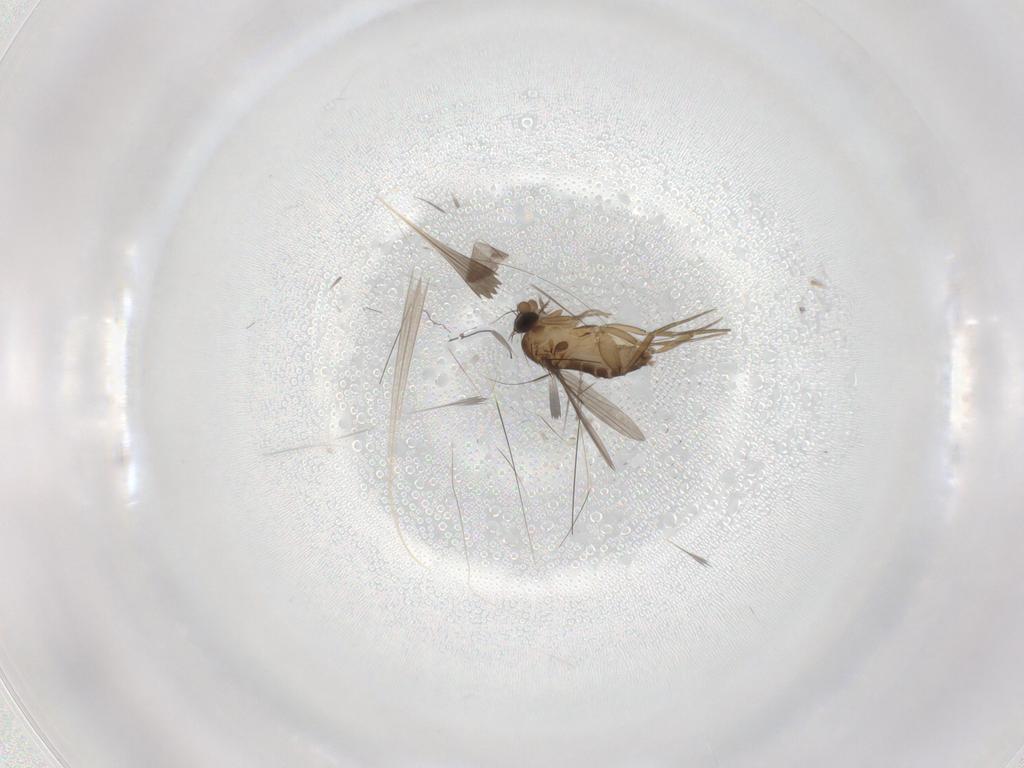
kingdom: Animalia
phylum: Arthropoda
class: Insecta
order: Diptera
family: Phoridae
